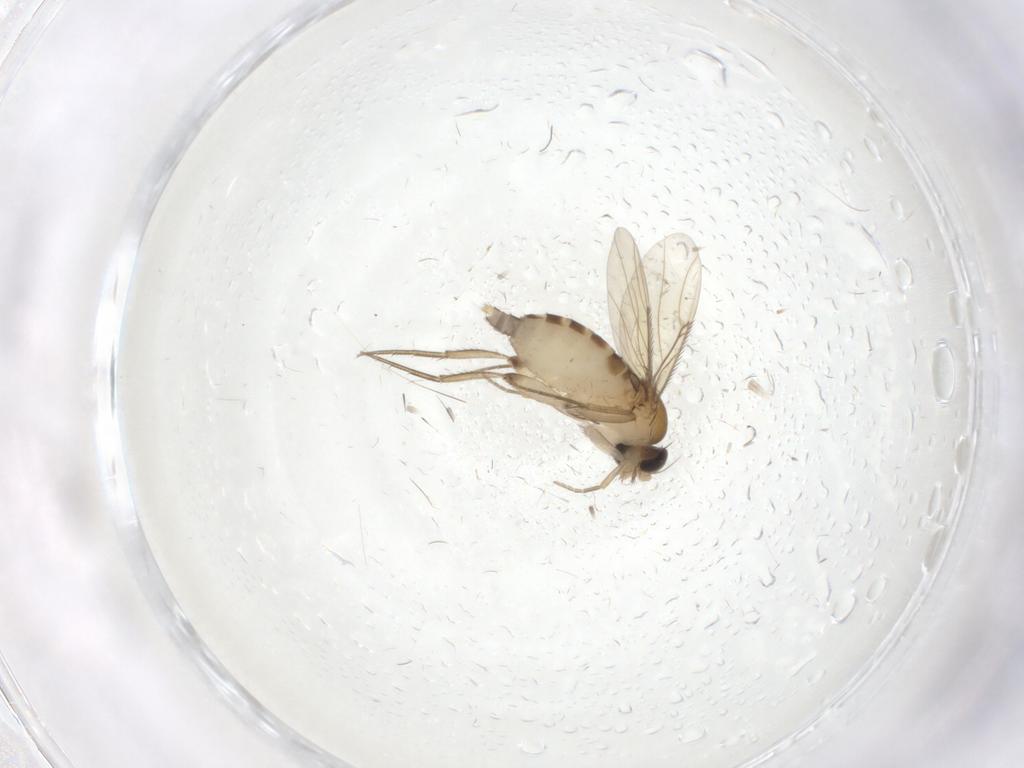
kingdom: Animalia
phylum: Arthropoda
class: Insecta
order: Diptera
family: Phoridae
